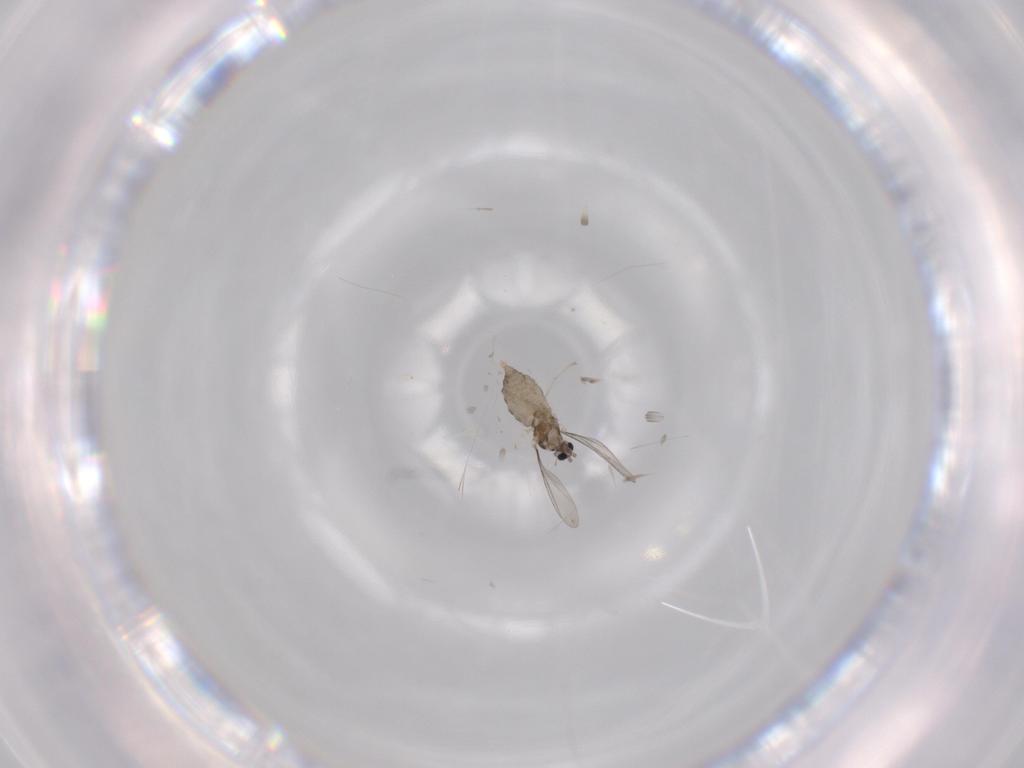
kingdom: Animalia
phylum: Arthropoda
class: Insecta
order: Diptera
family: Cecidomyiidae
